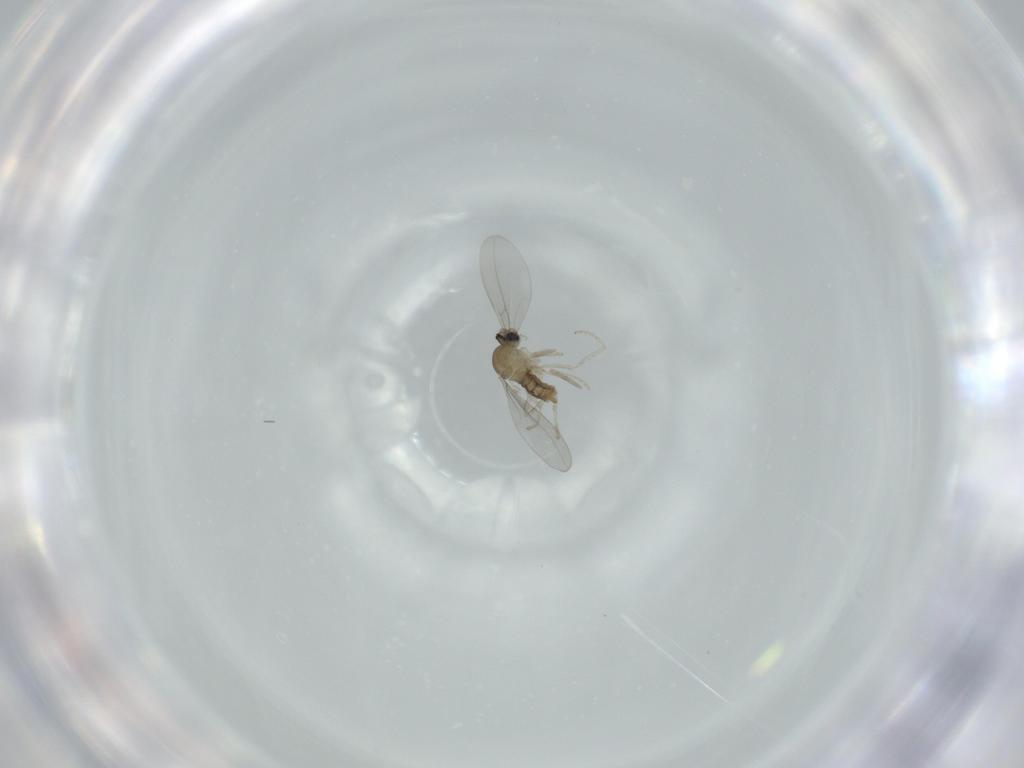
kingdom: Animalia
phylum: Arthropoda
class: Insecta
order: Diptera
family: Cecidomyiidae
